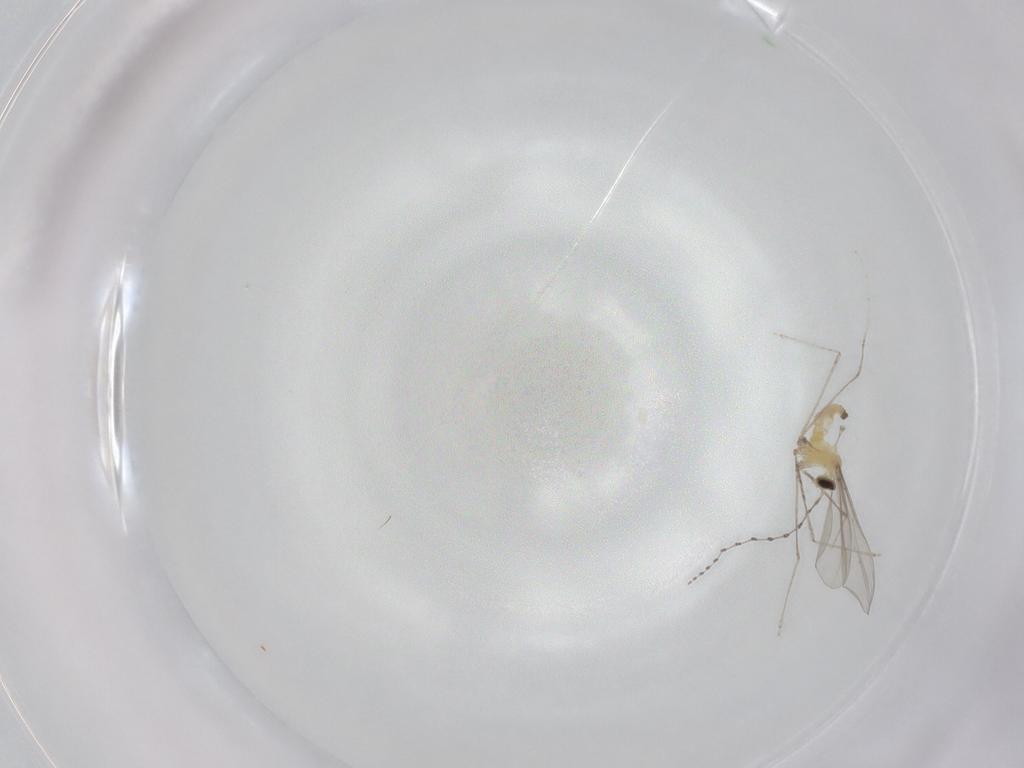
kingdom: Animalia
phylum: Arthropoda
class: Insecta
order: Diptera
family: Cecidomyiidae
